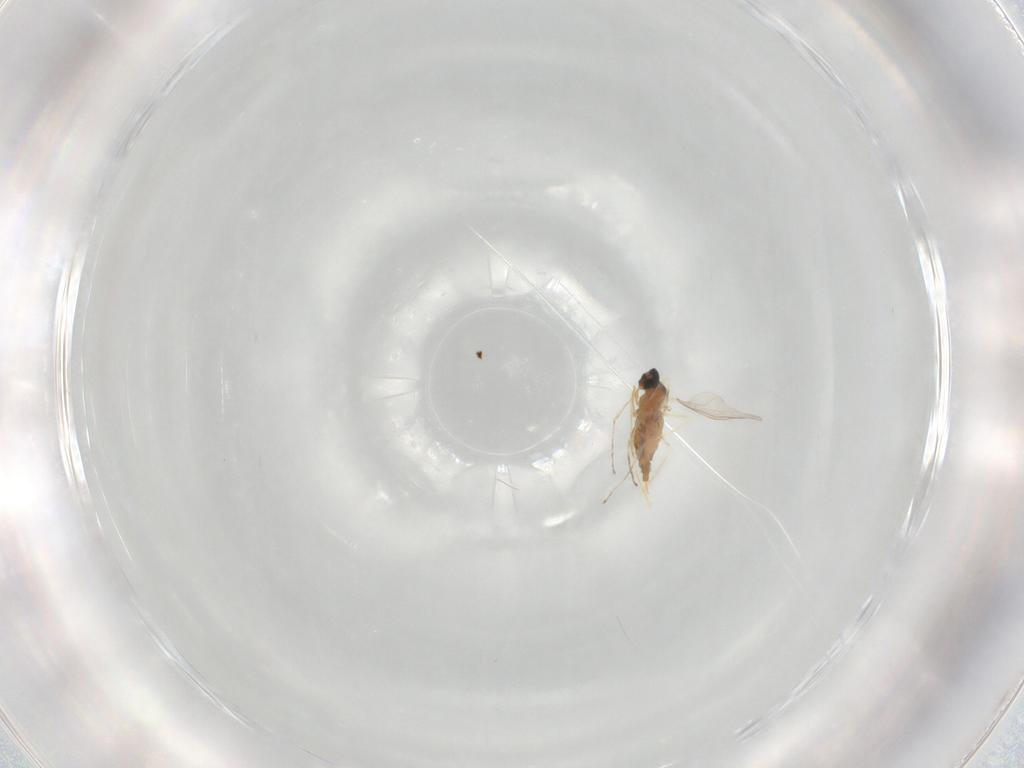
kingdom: Animalia
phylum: Arthropoda
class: Insecta
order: Diptera
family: Cecidomyiidae
